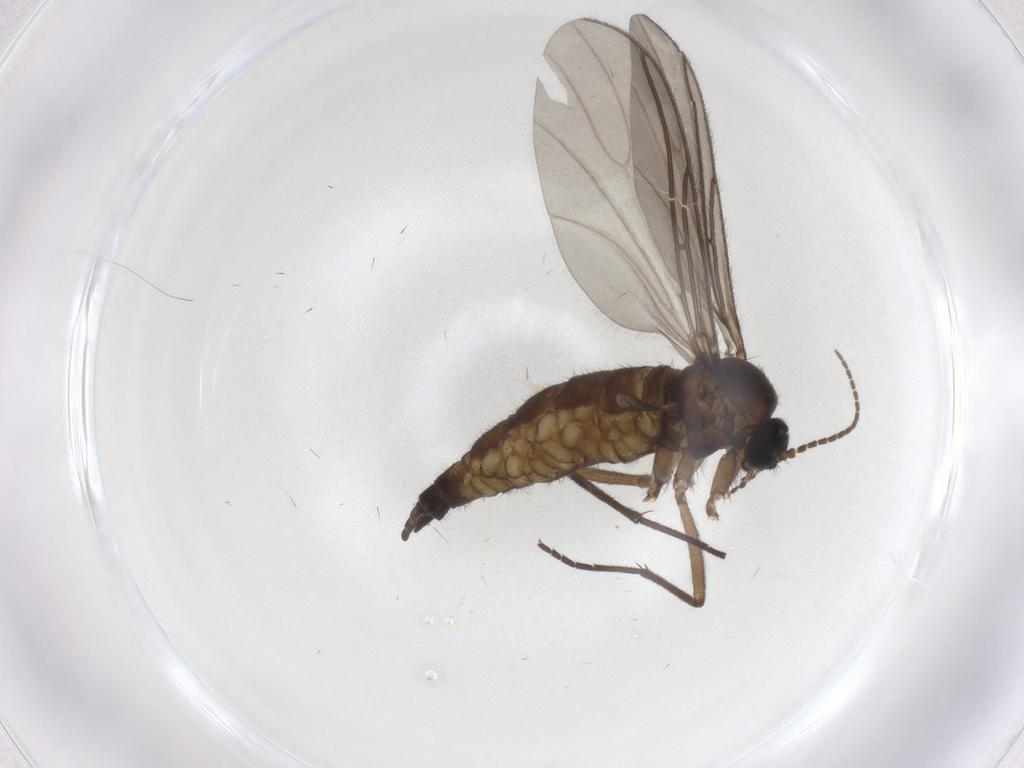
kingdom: Animalia
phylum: Arthropoda
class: Insecta
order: Diptera
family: Sciaridae
